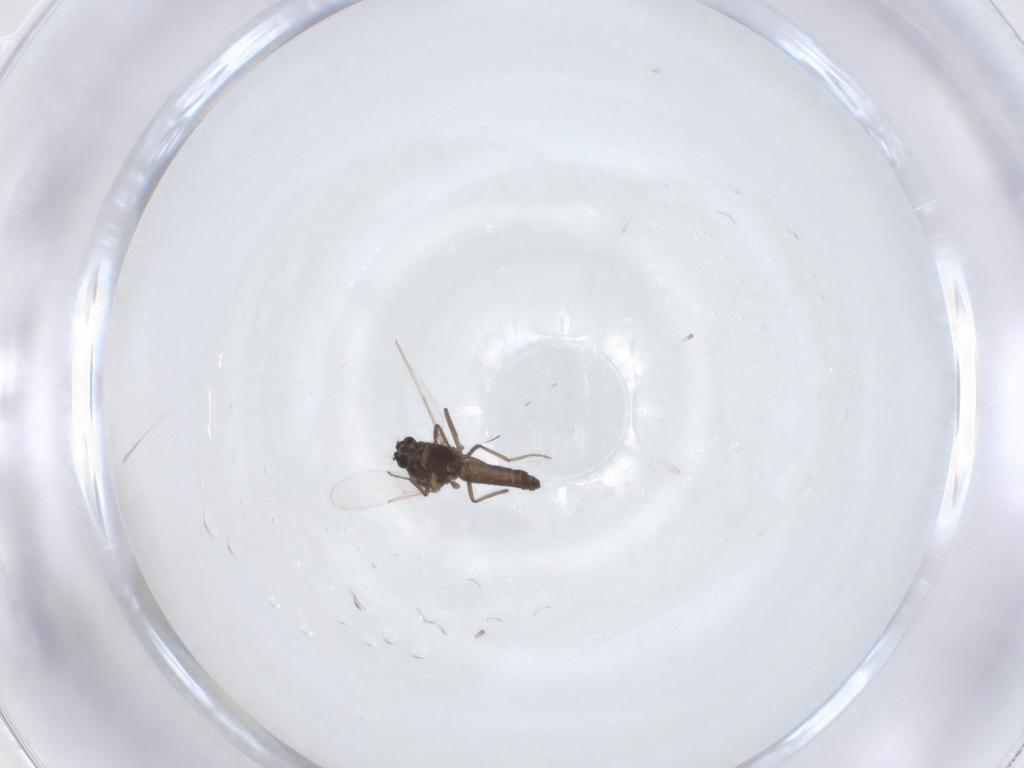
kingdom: Animalia
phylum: Arthropoda
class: Insecta
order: Diptera
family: Ceratopogonidae
